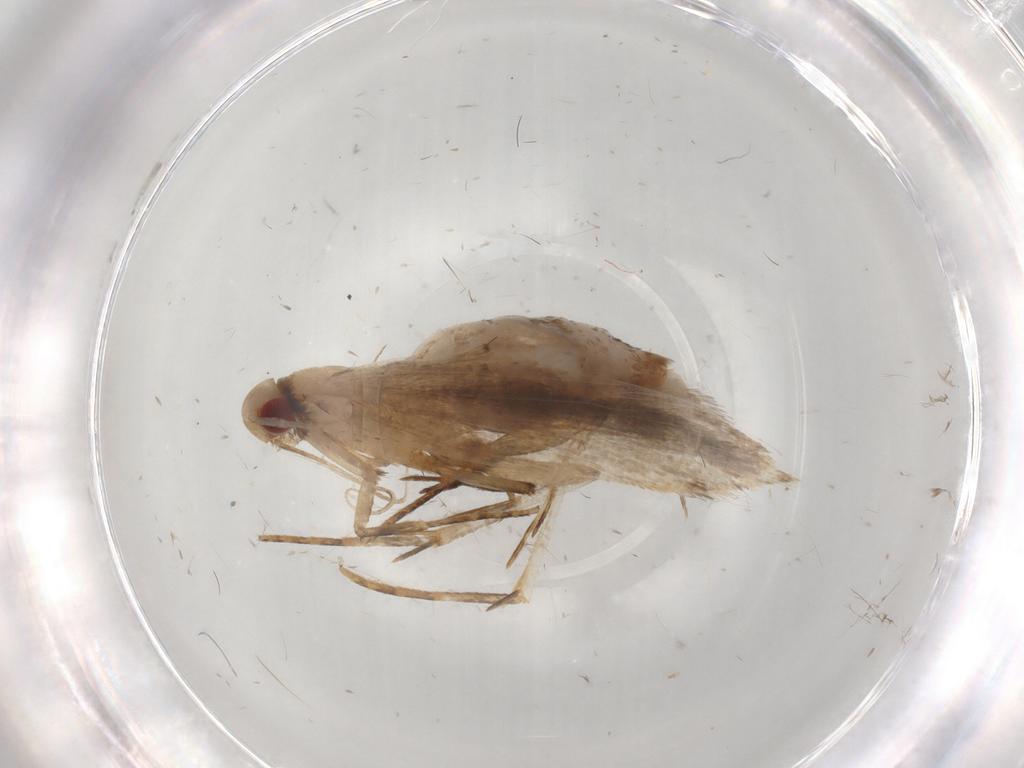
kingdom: Animalia
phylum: Arthropoda
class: Insecta
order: Lepidoptera
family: Gelechiidae
